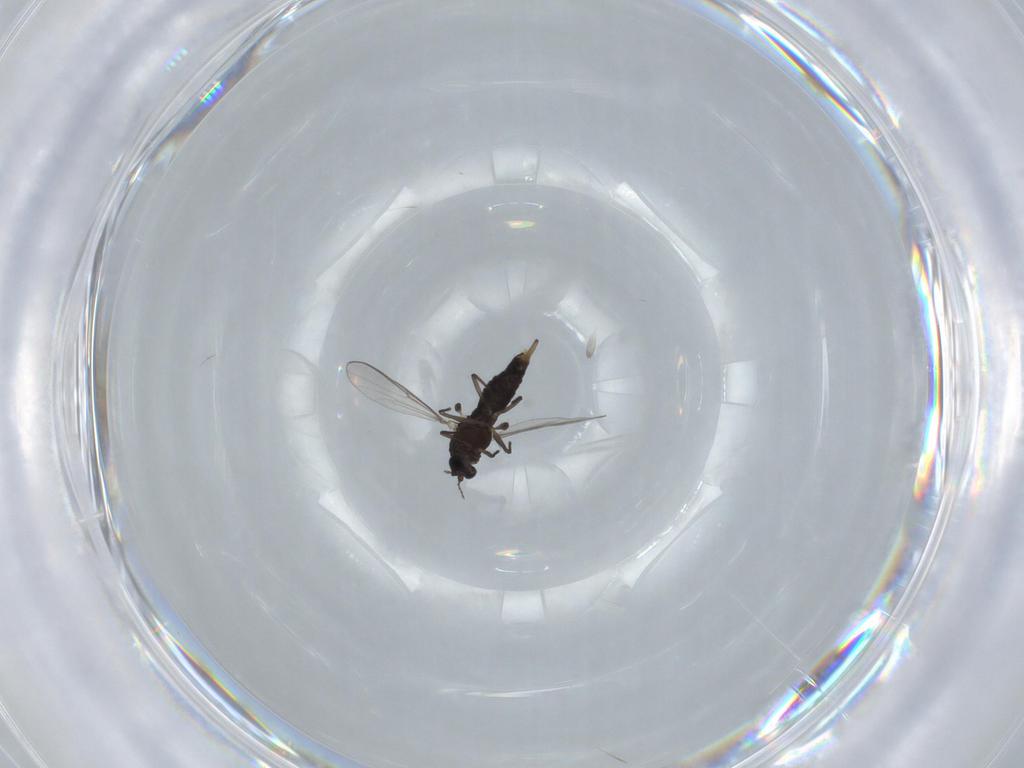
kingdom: Animalia
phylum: Arthropoda
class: Insecta
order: Diptera
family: Chironomidae
